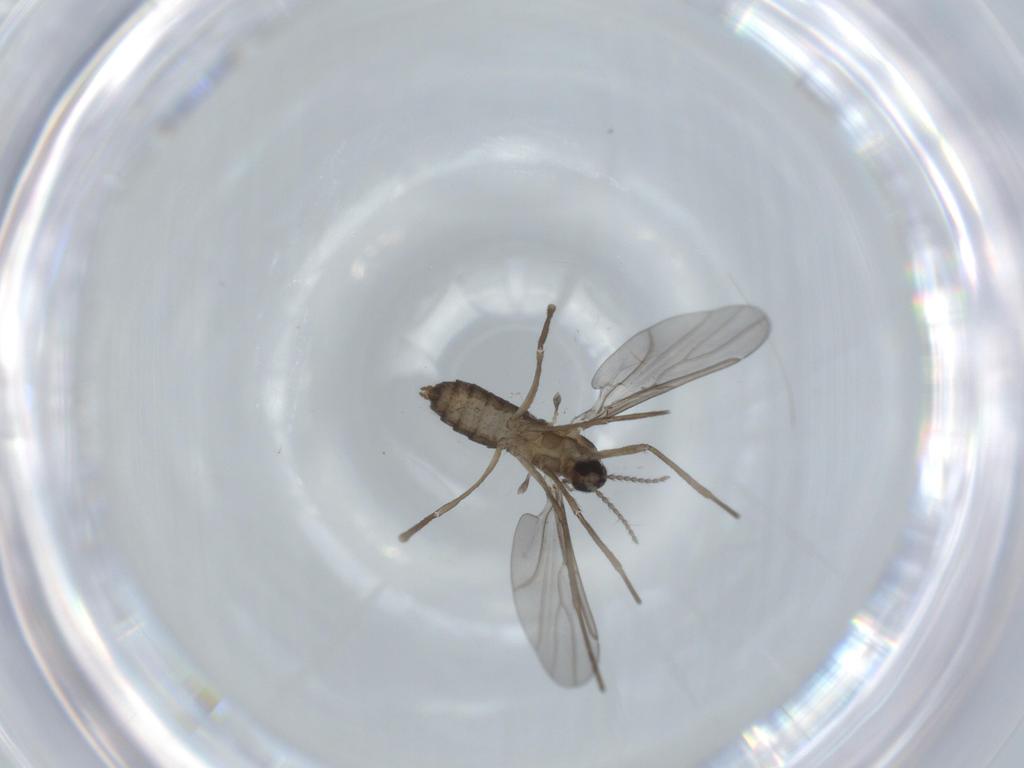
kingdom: Animalia
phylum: Arthropoda
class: Insecta
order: Diptera
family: Cecidomyiidae
